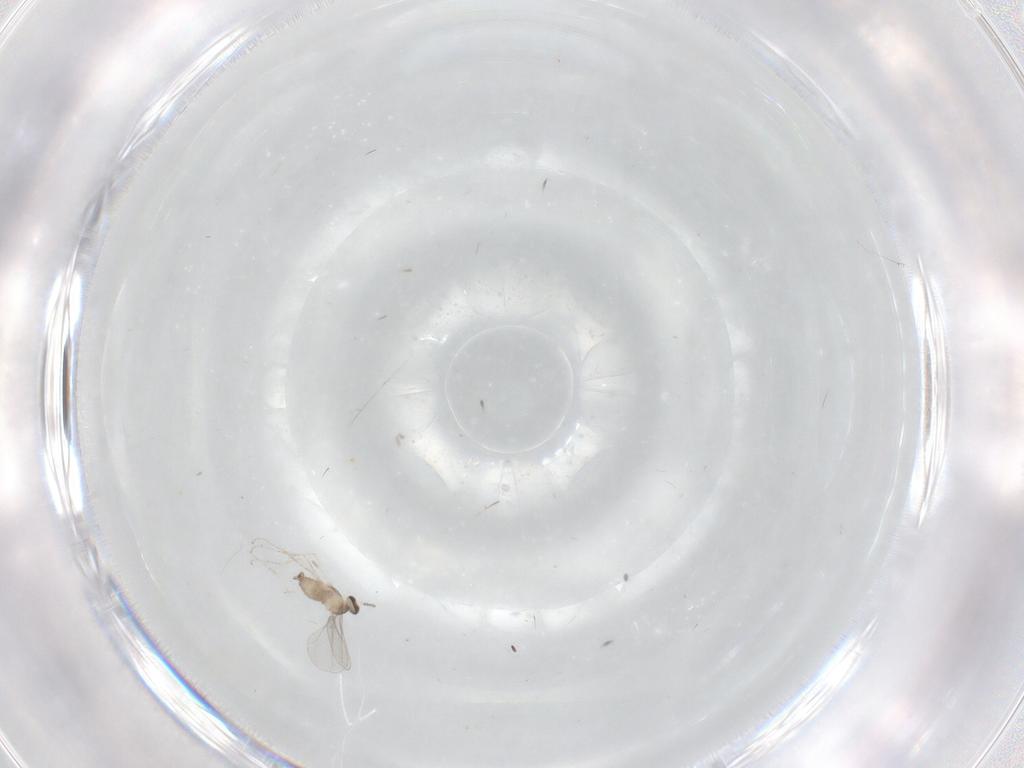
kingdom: Animalia
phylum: Arthropoda
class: Insecta
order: Diptera
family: Cecidomyiidae
